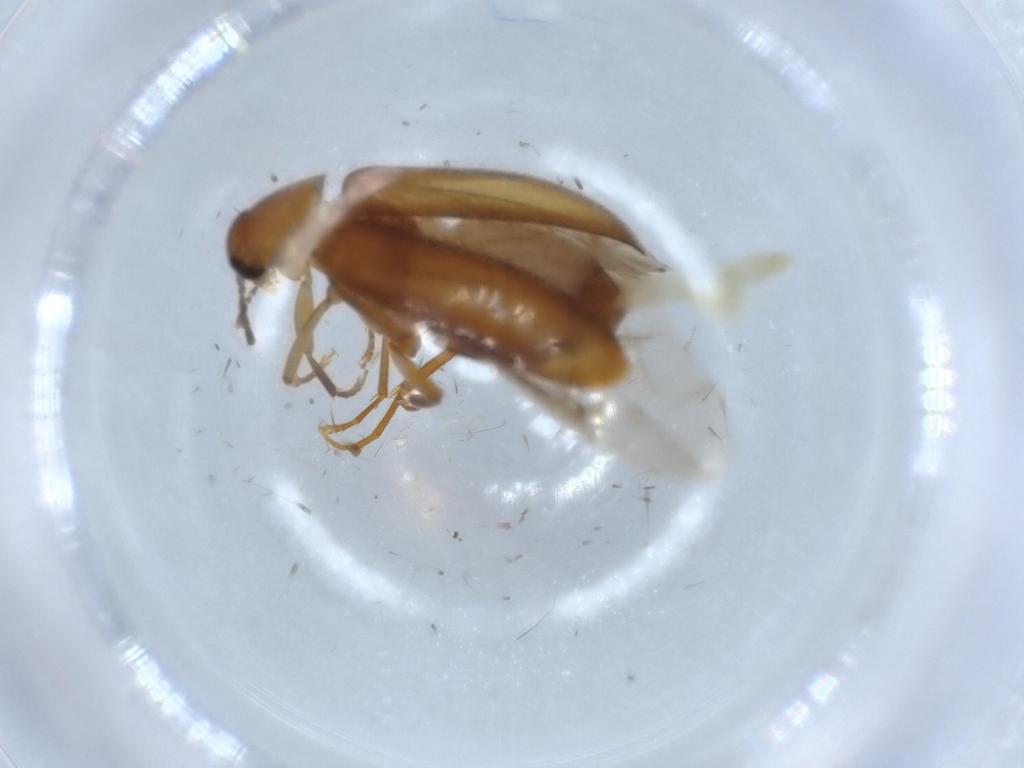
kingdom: Animalia
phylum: Arthropoda
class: Insecta
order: Coleoptera
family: Scraptiidae
